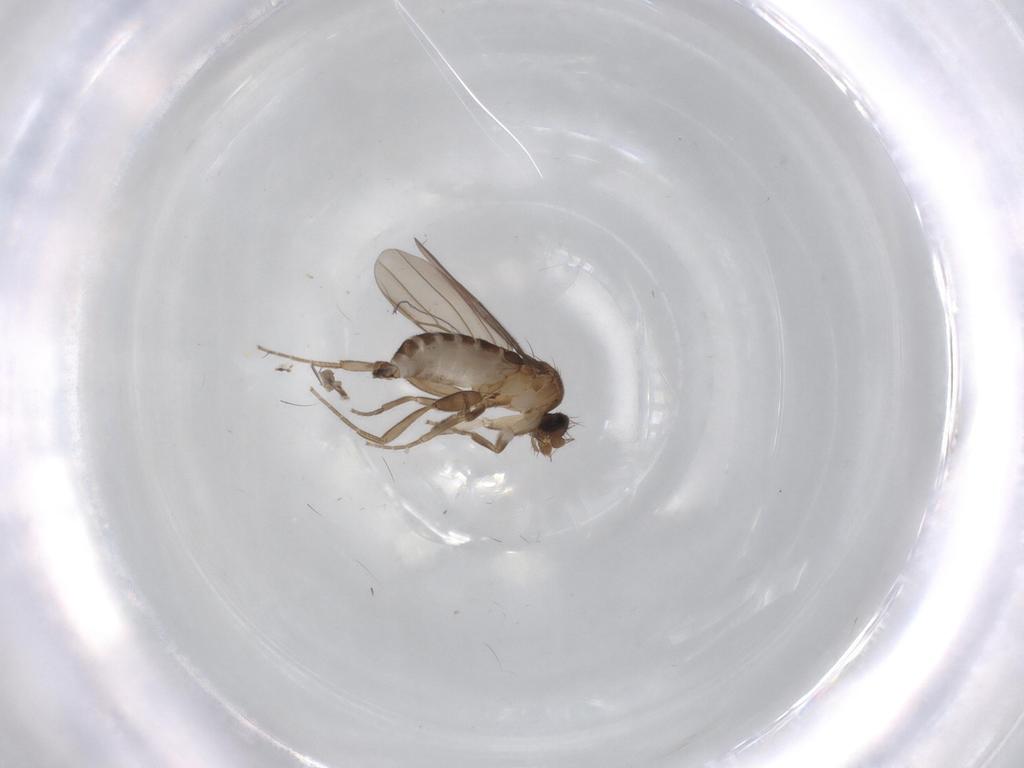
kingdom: Animalia
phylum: Arthropoda
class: Insecta
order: Diptera
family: Cecidomyiidae
